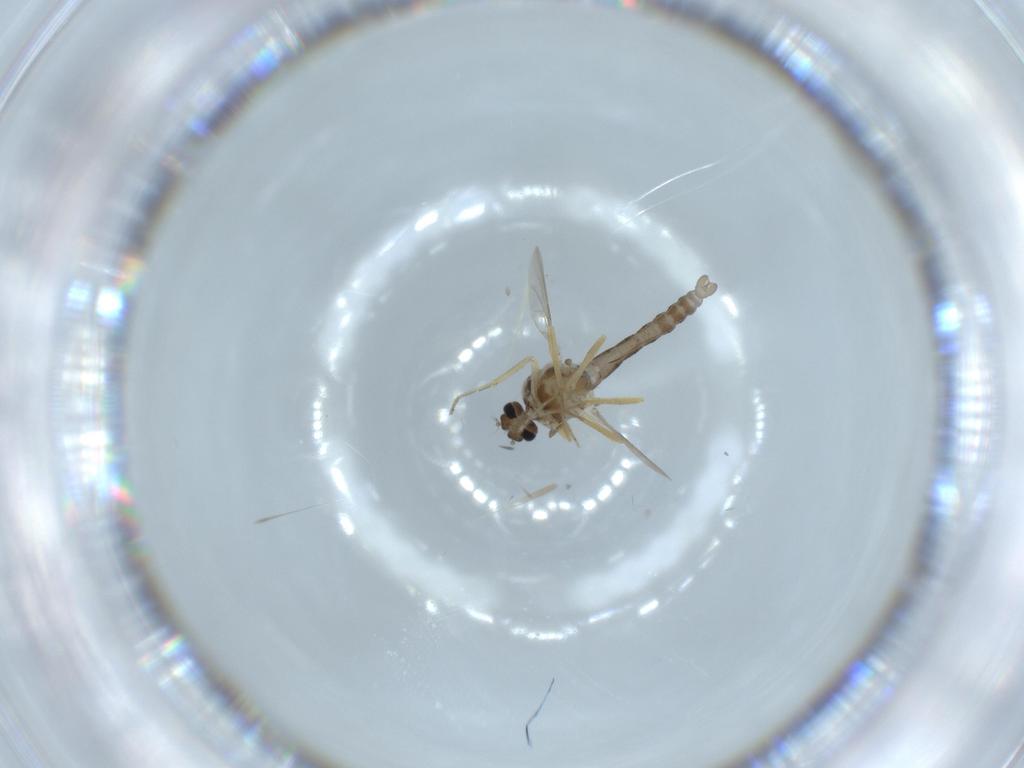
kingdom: Animalia
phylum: Arthropoda
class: Insecta
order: Diptera
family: Ceratopogonidae
